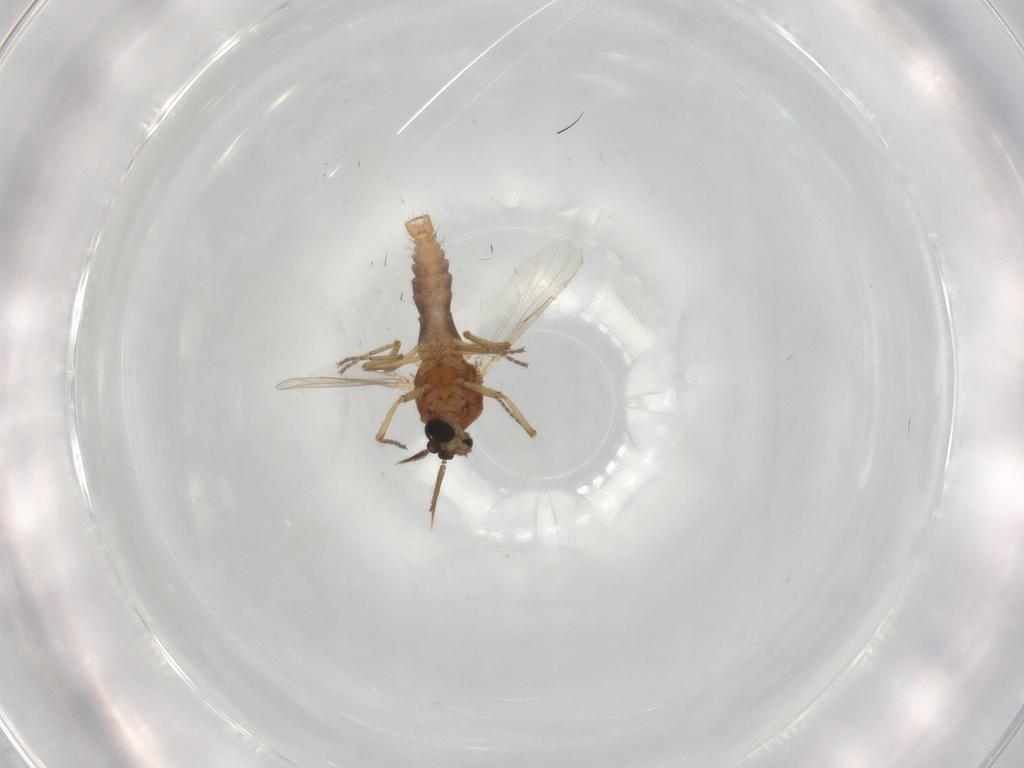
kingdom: Animalia
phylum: Arthropoda
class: Insecta
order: Diptera
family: Ceratopogonidae
